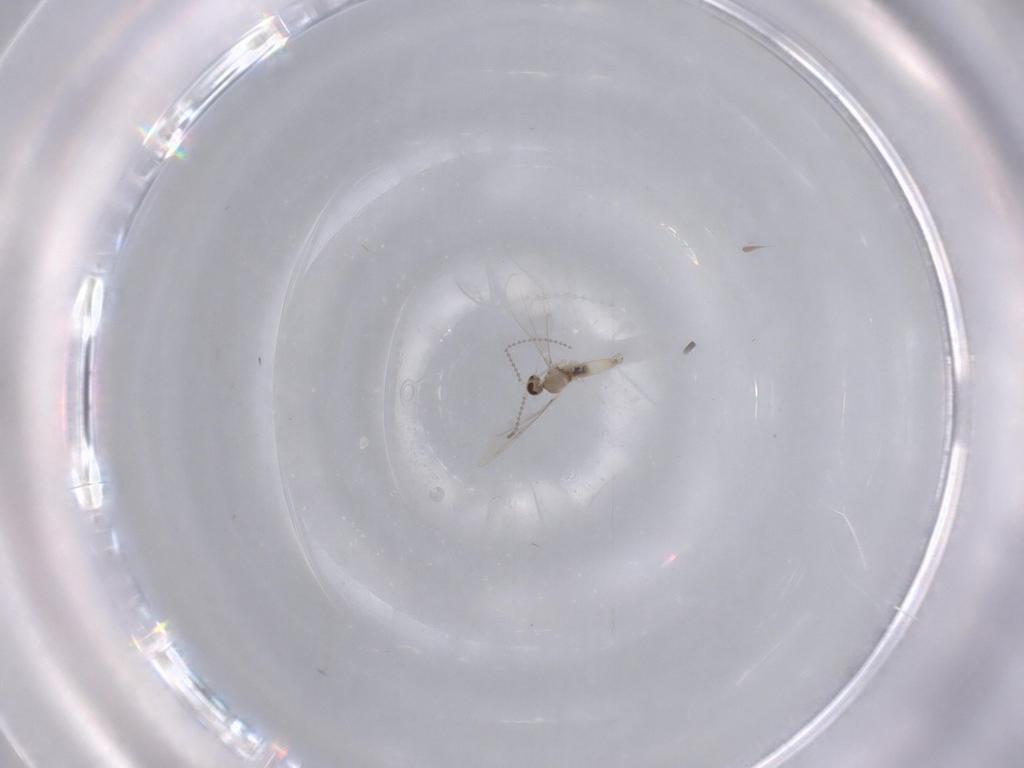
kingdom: Animalia
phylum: Arthropoda
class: Insecta
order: Diptera
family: Cecidomyiidae
